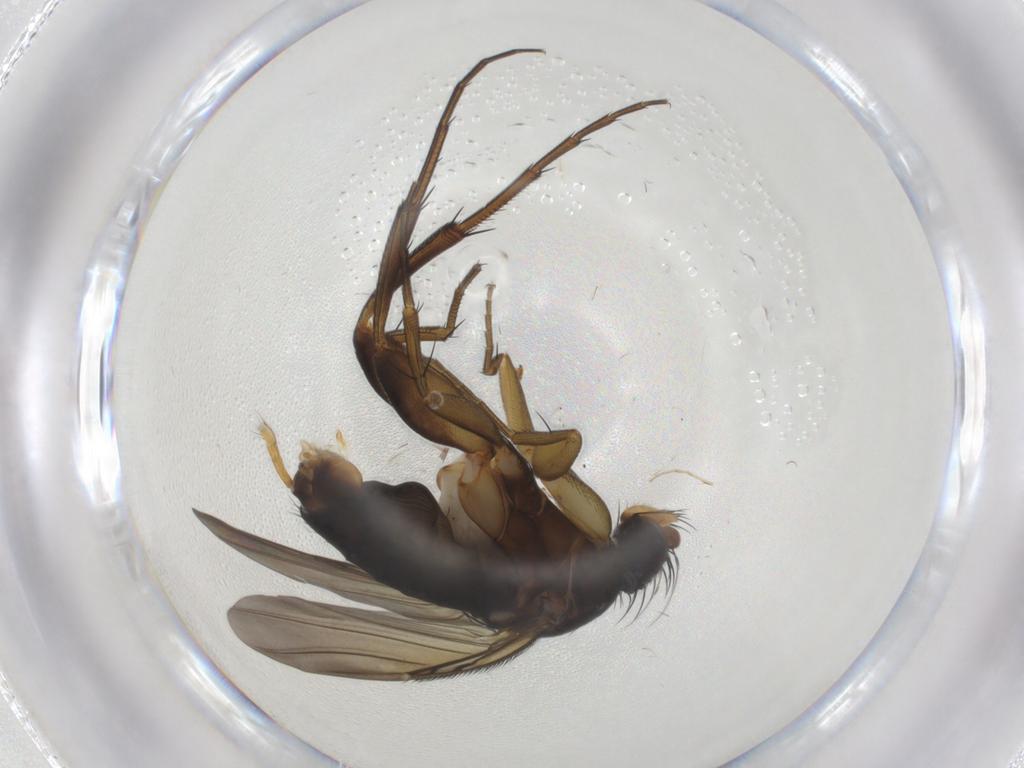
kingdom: Animalia
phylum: Arthropoda
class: Insecta
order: Diptera
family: Phoridae
